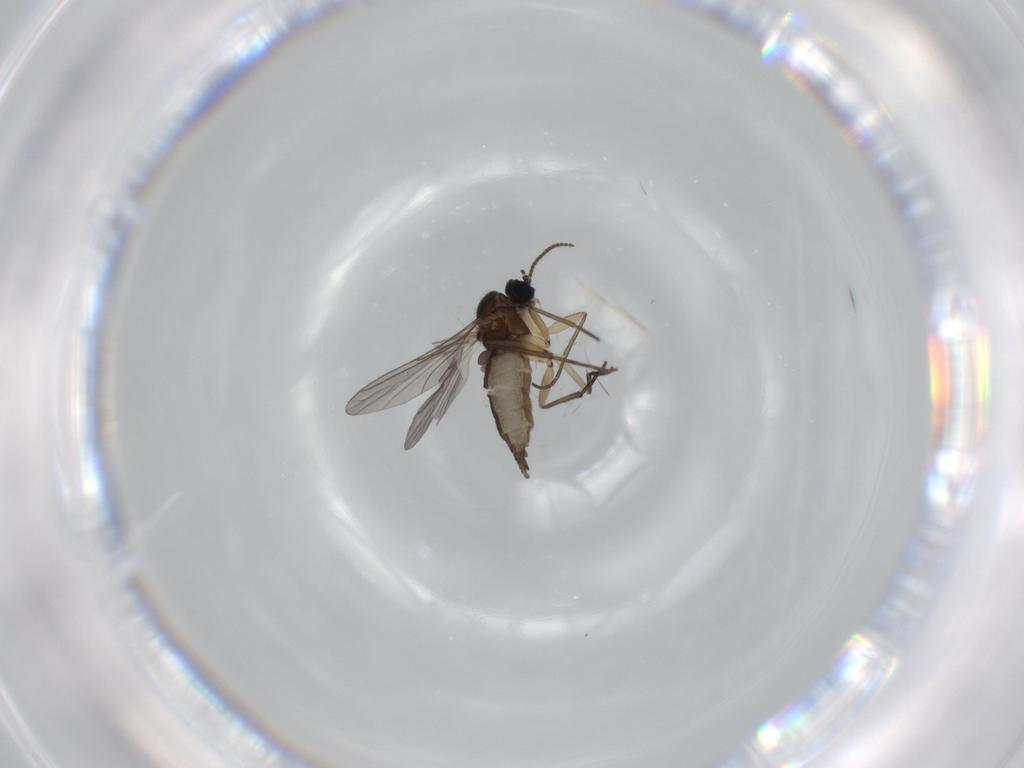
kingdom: Animalia
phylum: Arthropoda
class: Insecta
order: Diptera
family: Sciaridae
